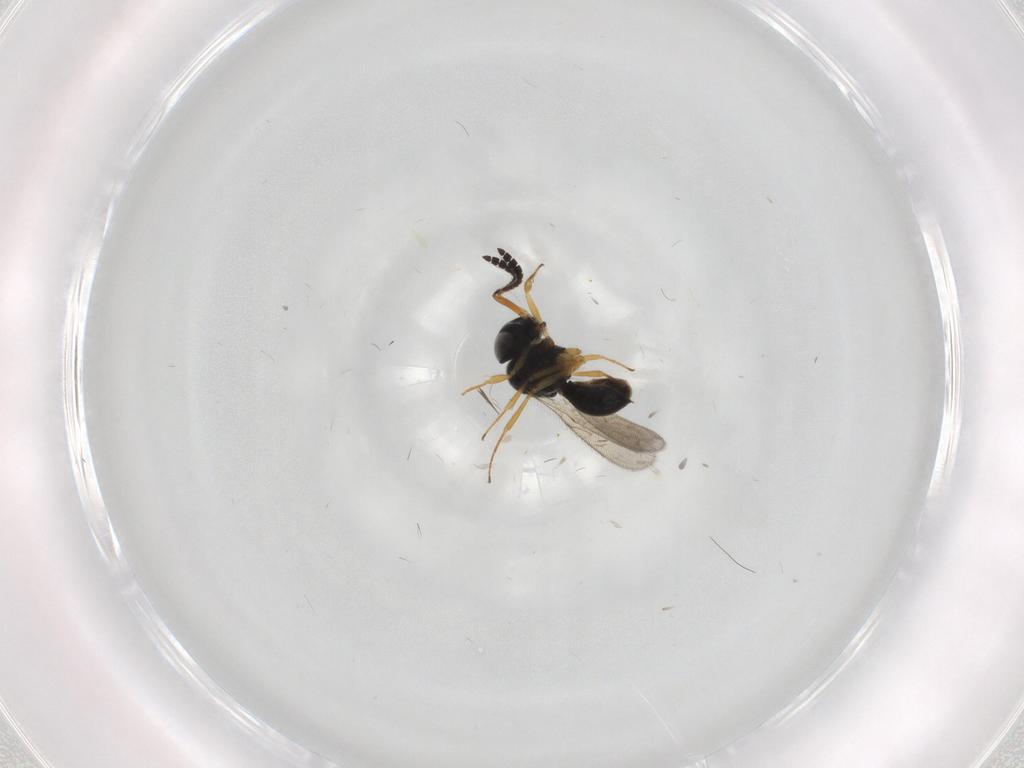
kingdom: Animalia
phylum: Arthropoda
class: Insecta
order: Hymenoptera
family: Scelionidae
